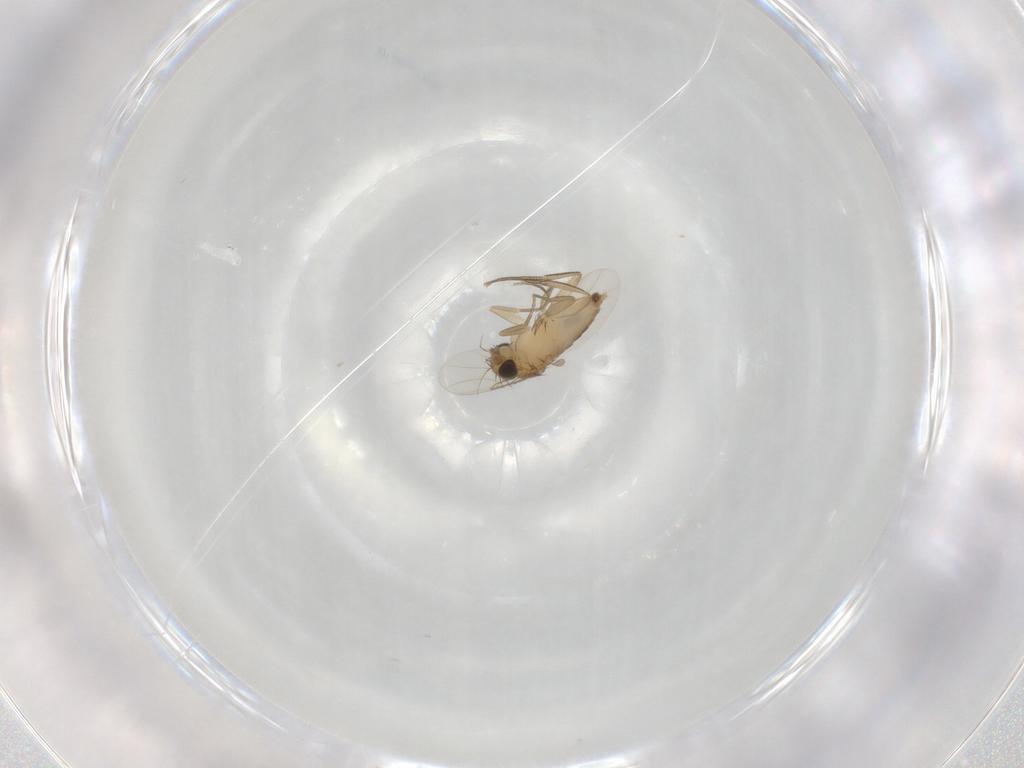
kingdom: Animalia
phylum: Arthropoda
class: Insecta
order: Diptera
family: Phoridae
